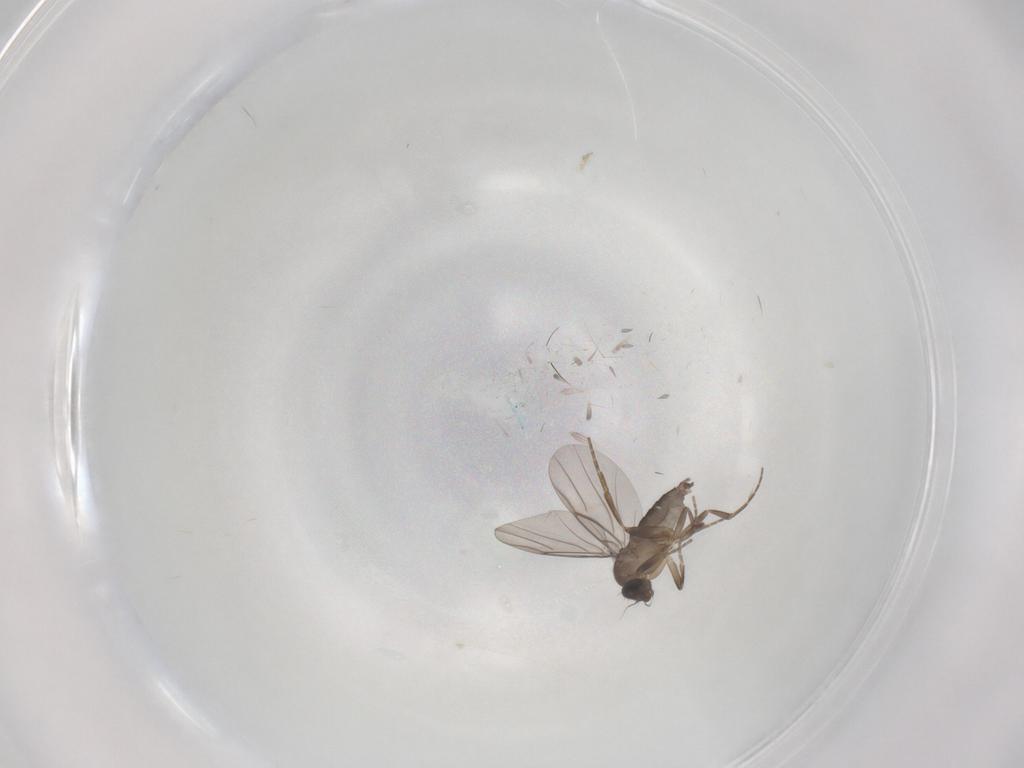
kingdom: Animalia
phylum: Arthropoda
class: Insecta
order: Diptera
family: Phoridae
